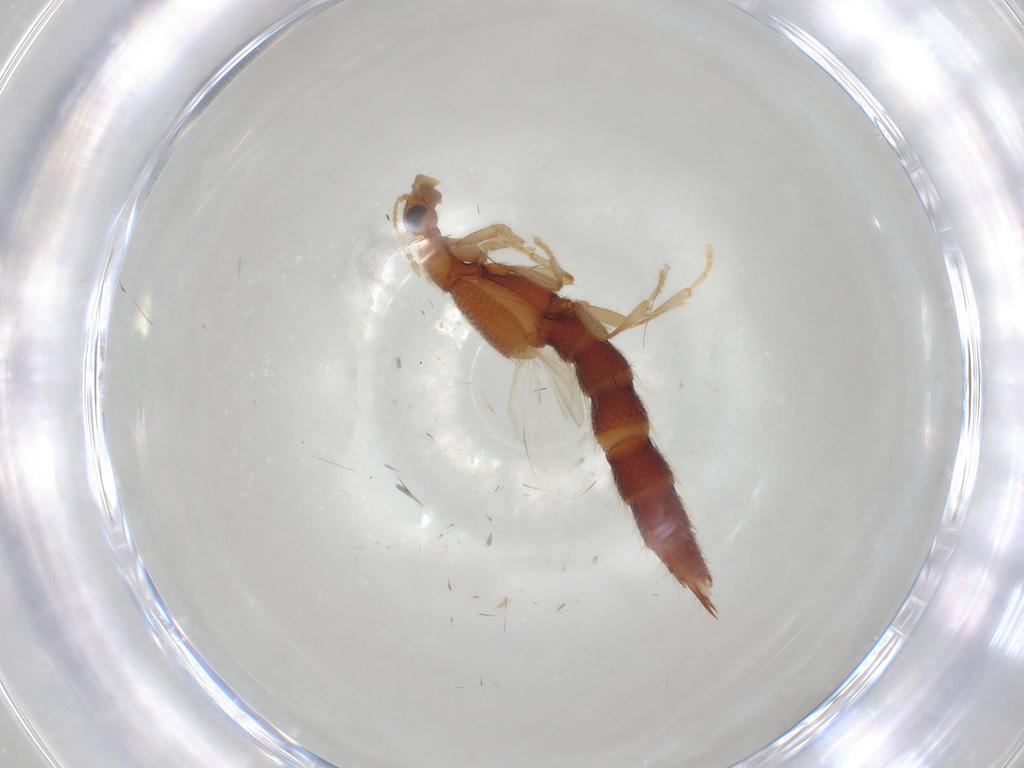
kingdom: Animalia
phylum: Arthropoda
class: Insecta
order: Coleoptera
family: Staphylinidae
